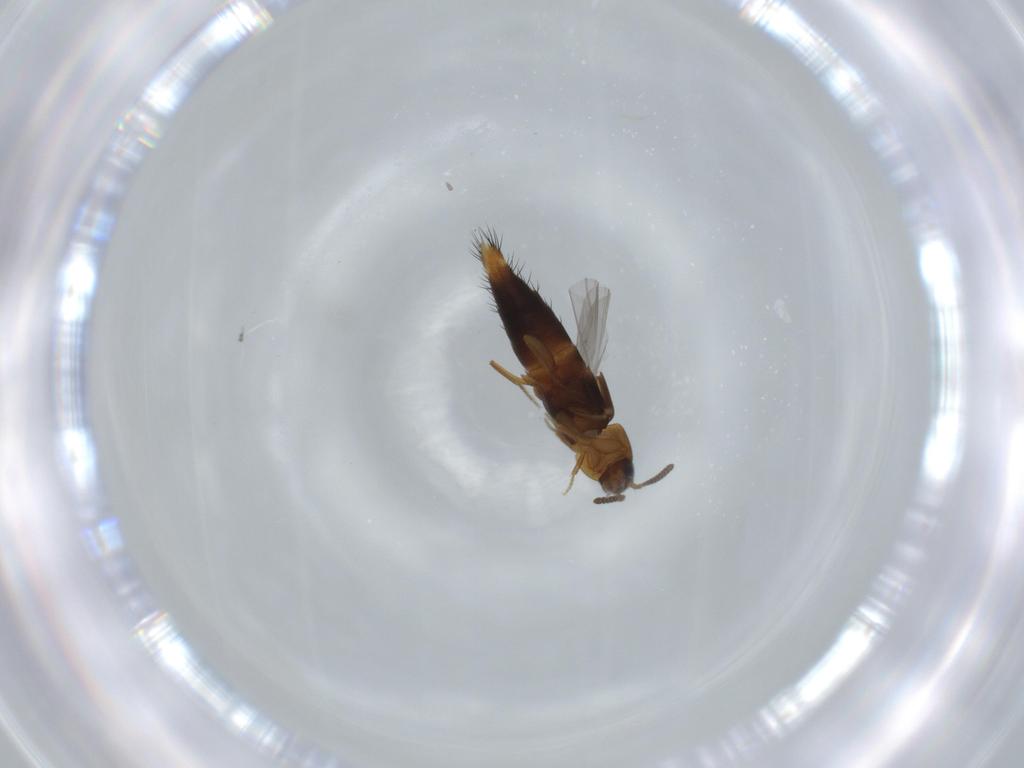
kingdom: Animalia
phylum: Arthropoda
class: Insecta
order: Coleoptera
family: Staphylinidae
